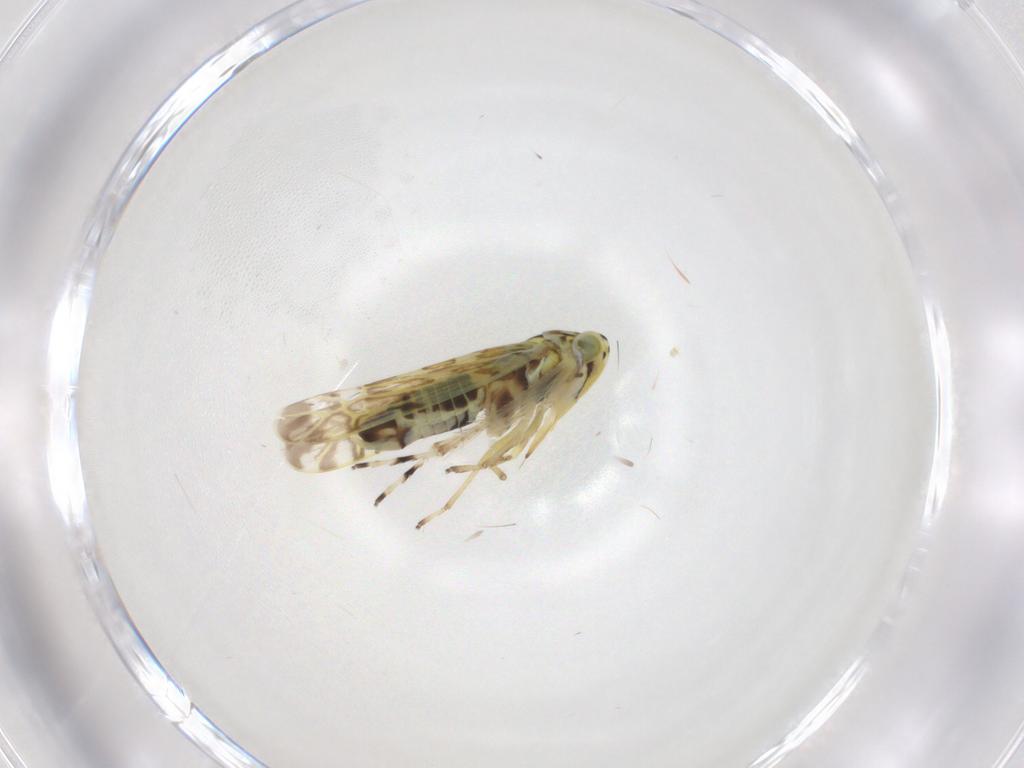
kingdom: Animalia
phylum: Arthropoda
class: Insecta
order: Hemiptera
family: Cicadellidae
